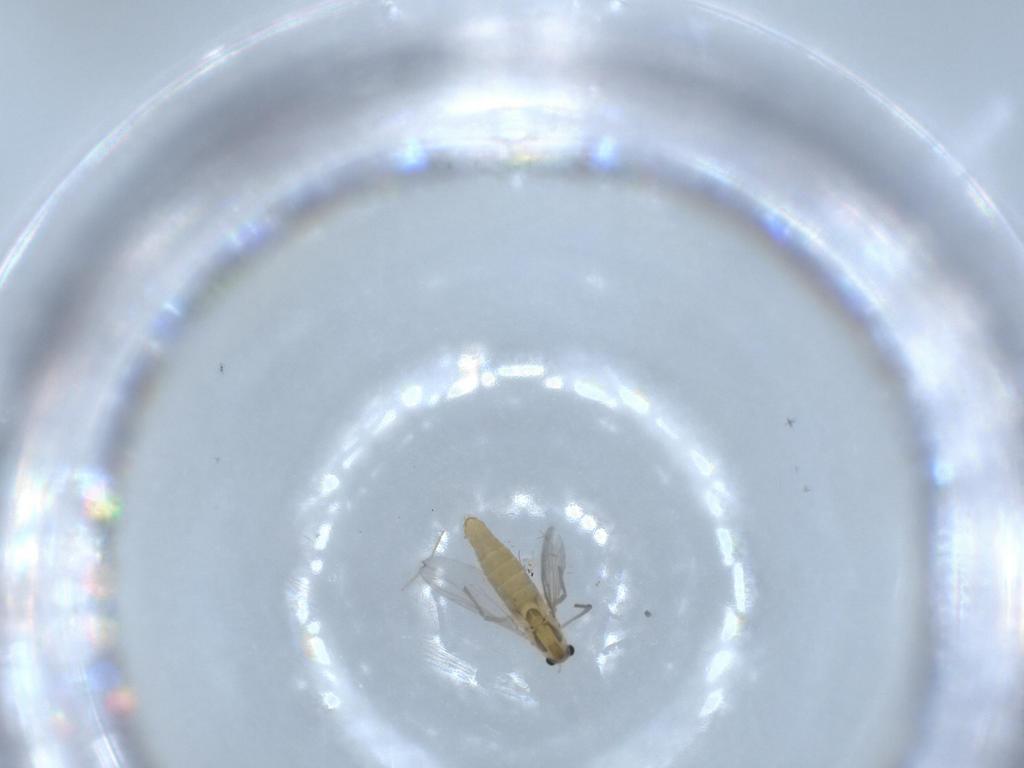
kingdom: Animalia
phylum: Arthropoda
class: Insecta
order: Diptera
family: Chironomidae
